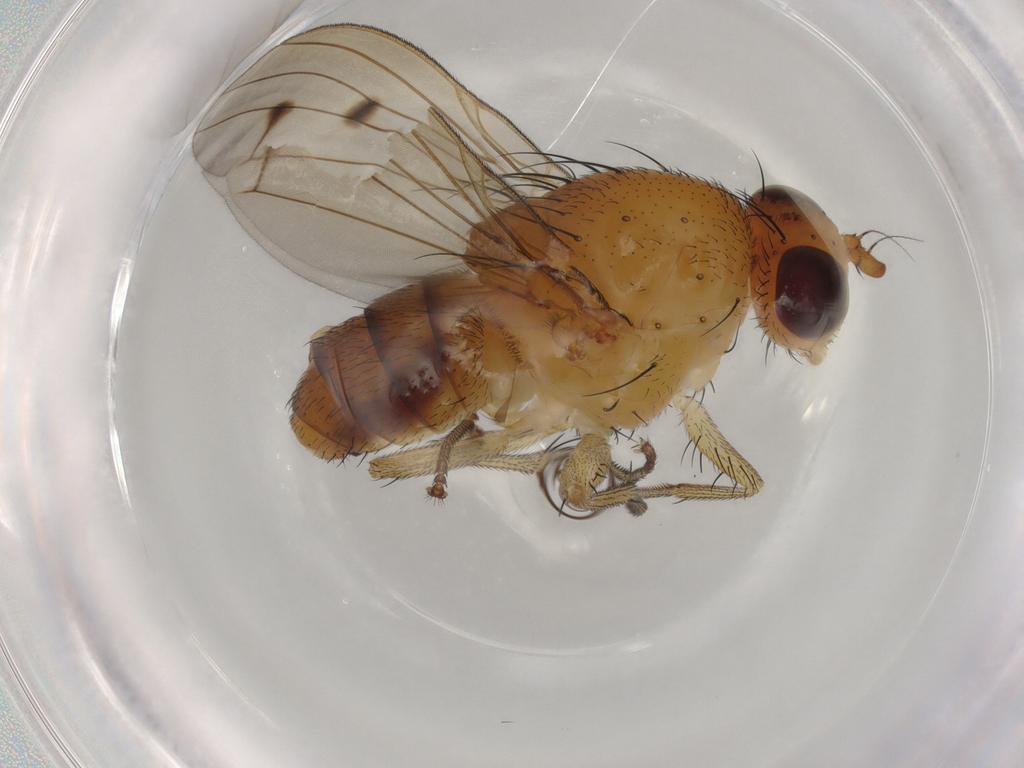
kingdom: Animalia
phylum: Arthropoda
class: Insecta
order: Diptera
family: Lauxaniidae
